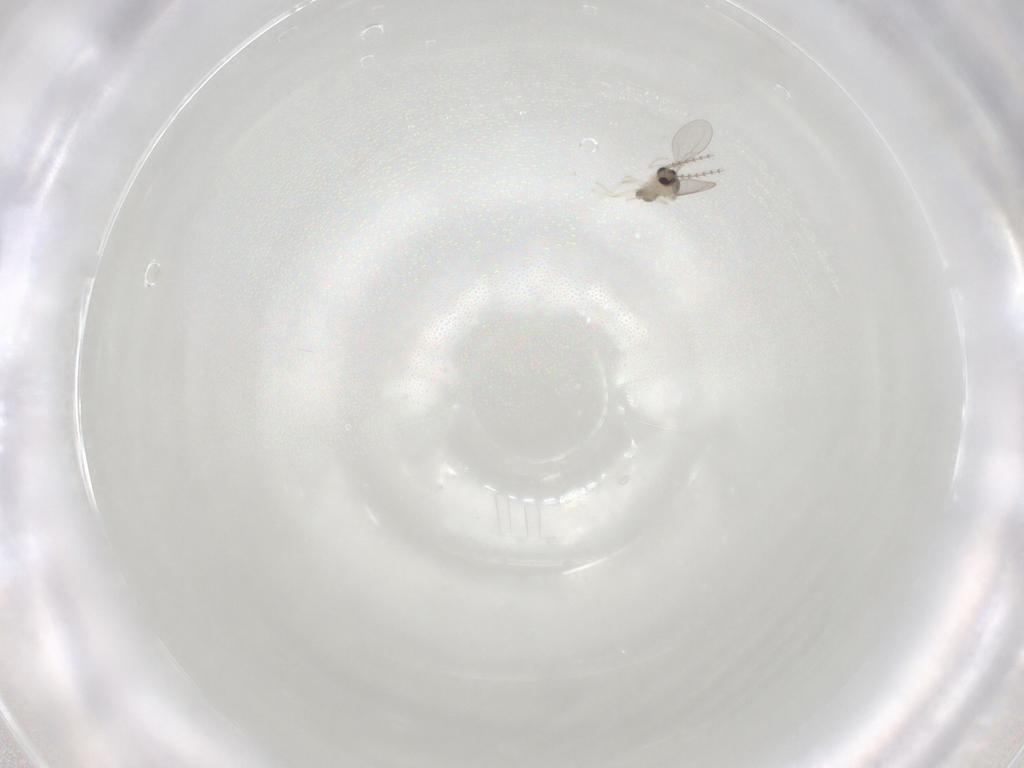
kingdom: Animalia
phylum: Arthropoda
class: Insecta
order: Diptera
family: Cecidomyiidae
